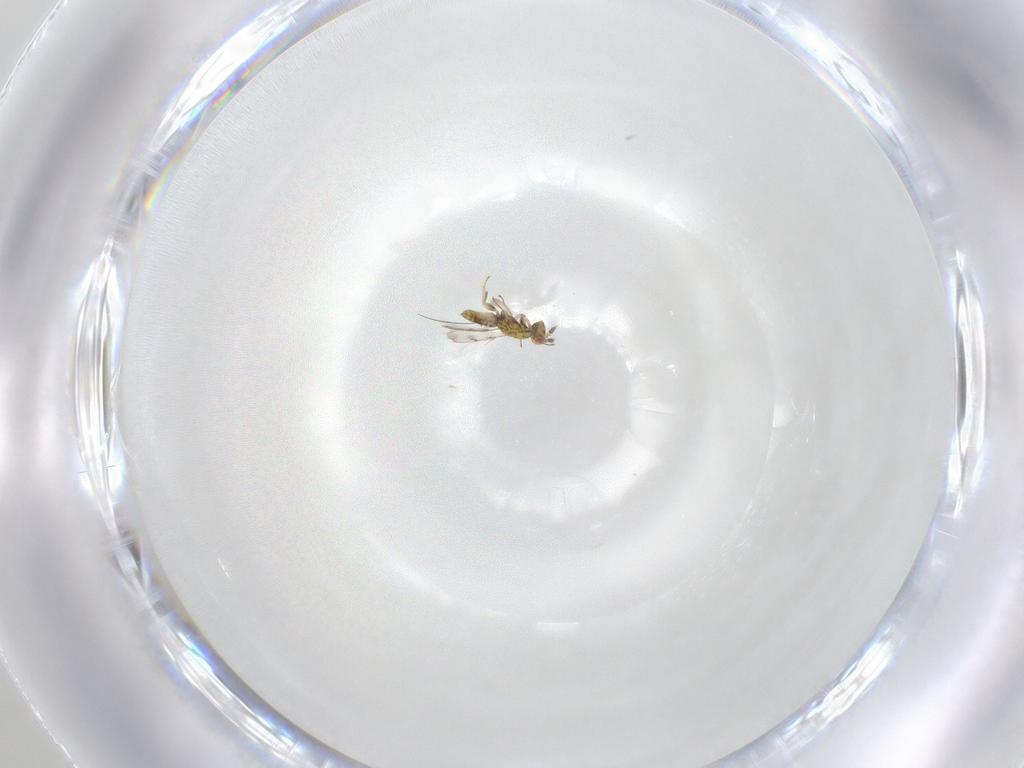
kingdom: Animalia
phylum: Arthropoda
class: Insecta
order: Hymenoptera
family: Eulophidae
